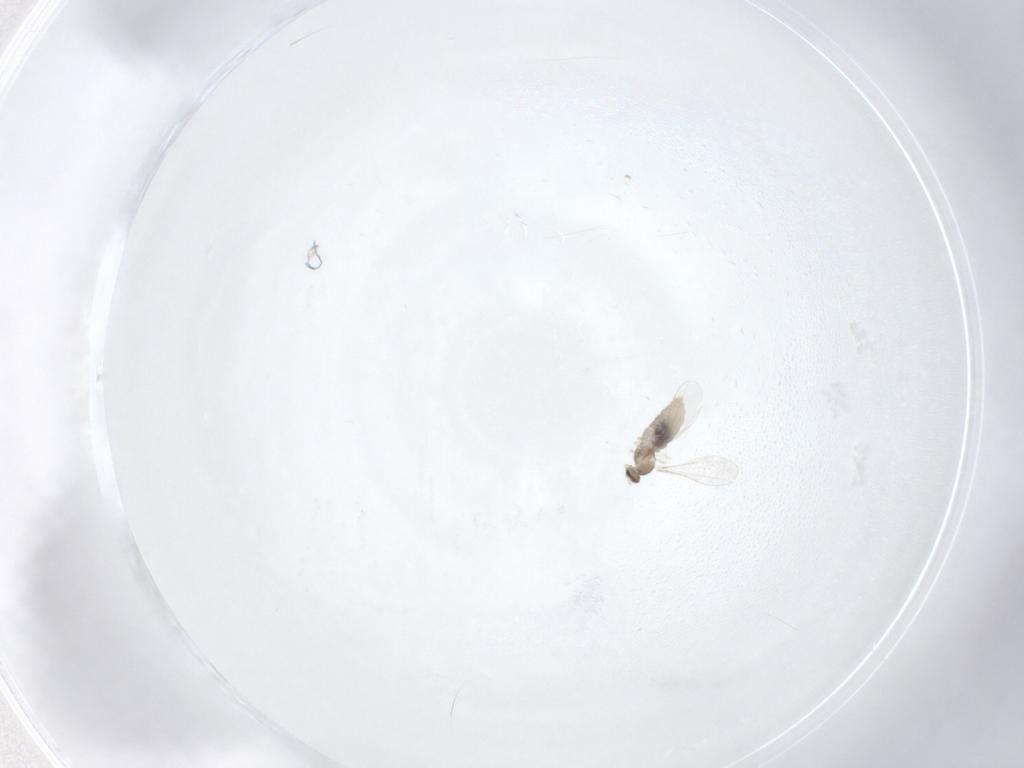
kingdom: Animalia
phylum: Arthropoda
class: Insecta
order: Diptera
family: Cecidomyiidae
